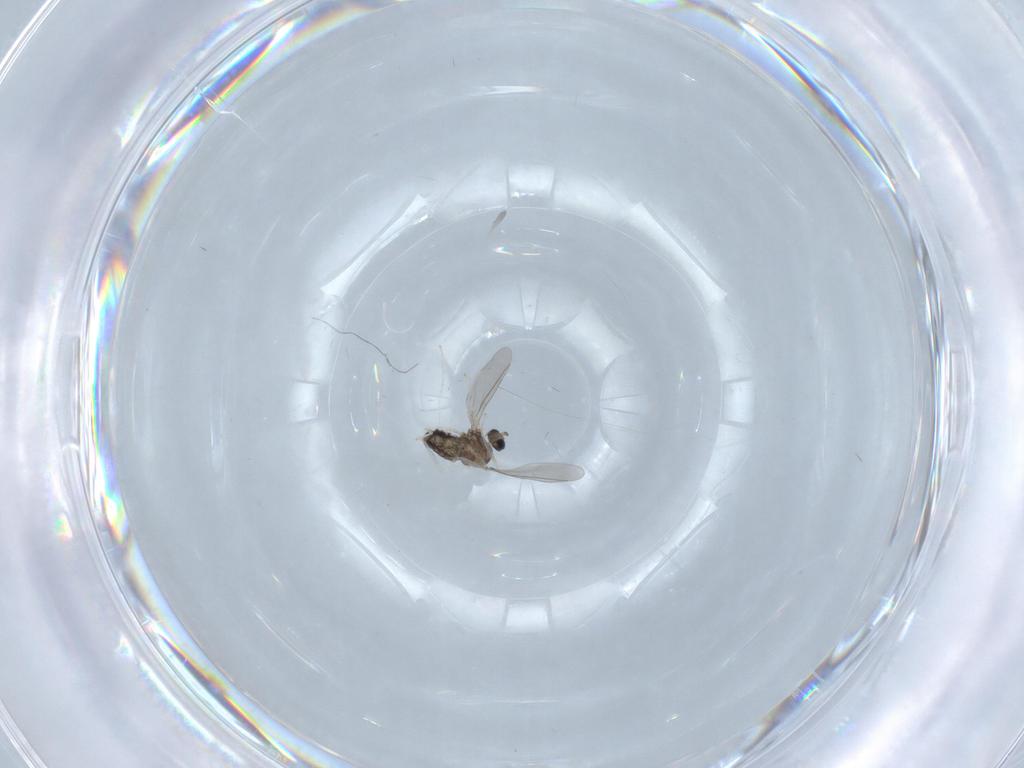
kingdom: Animalia
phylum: Arthropoda
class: Insecta
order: Diptera
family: Cecidomyiidae
